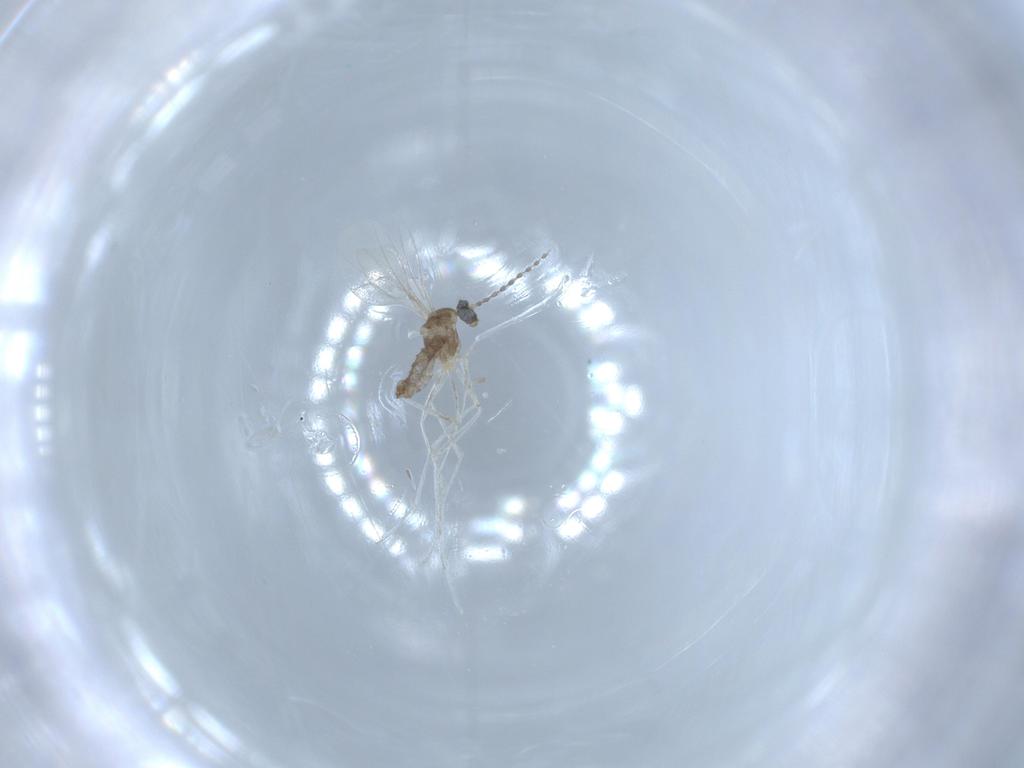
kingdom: Animalia
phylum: Arthropoda
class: Insecta
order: Diptera
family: Cecidomyiidae
